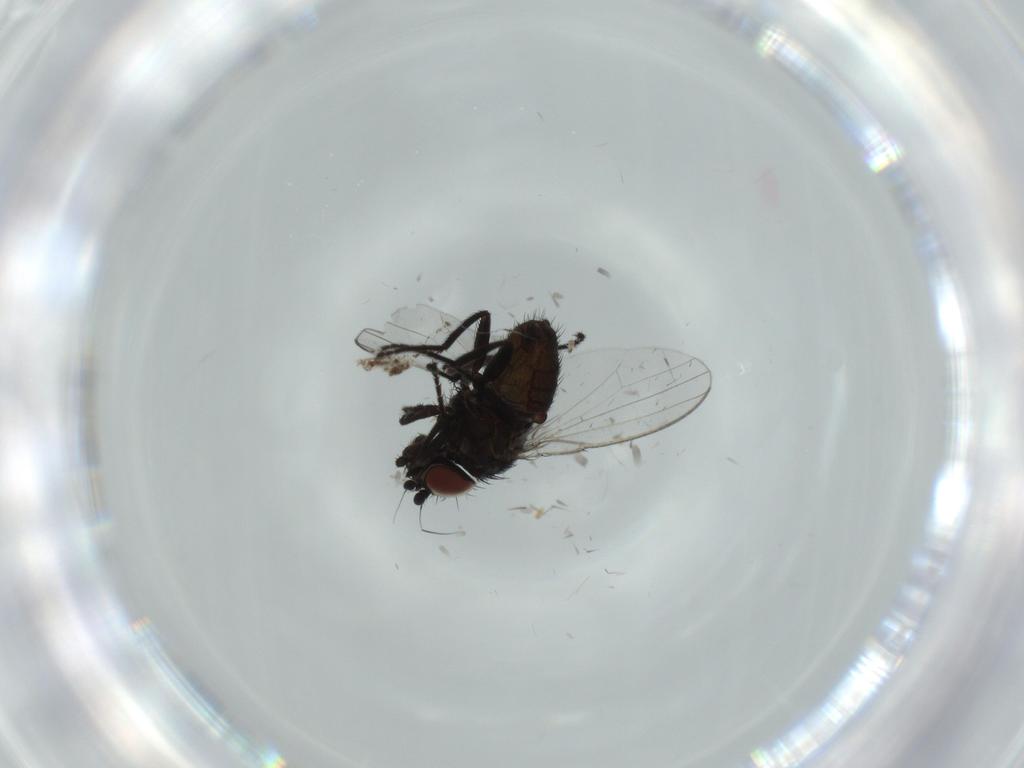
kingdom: Animalia
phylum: Arthropoda
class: Insecta
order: Diptera
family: Milichiidae
